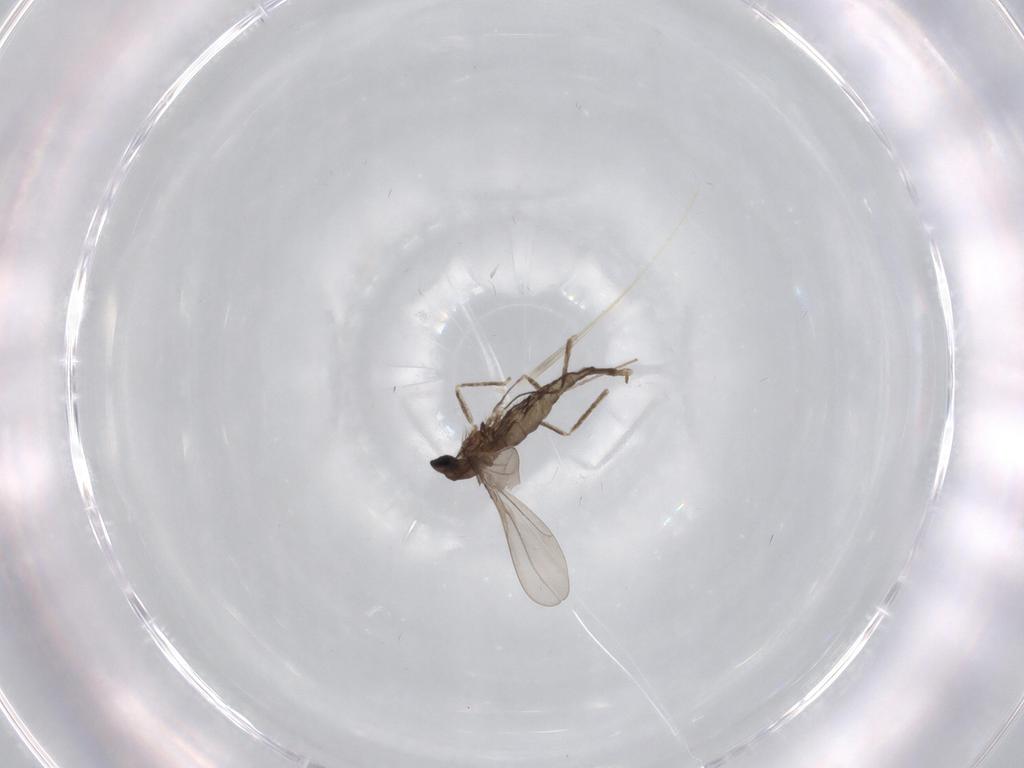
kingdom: Animalia
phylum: Arthropoda
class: Insecta
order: Diptera
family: Cecidomyiidae
